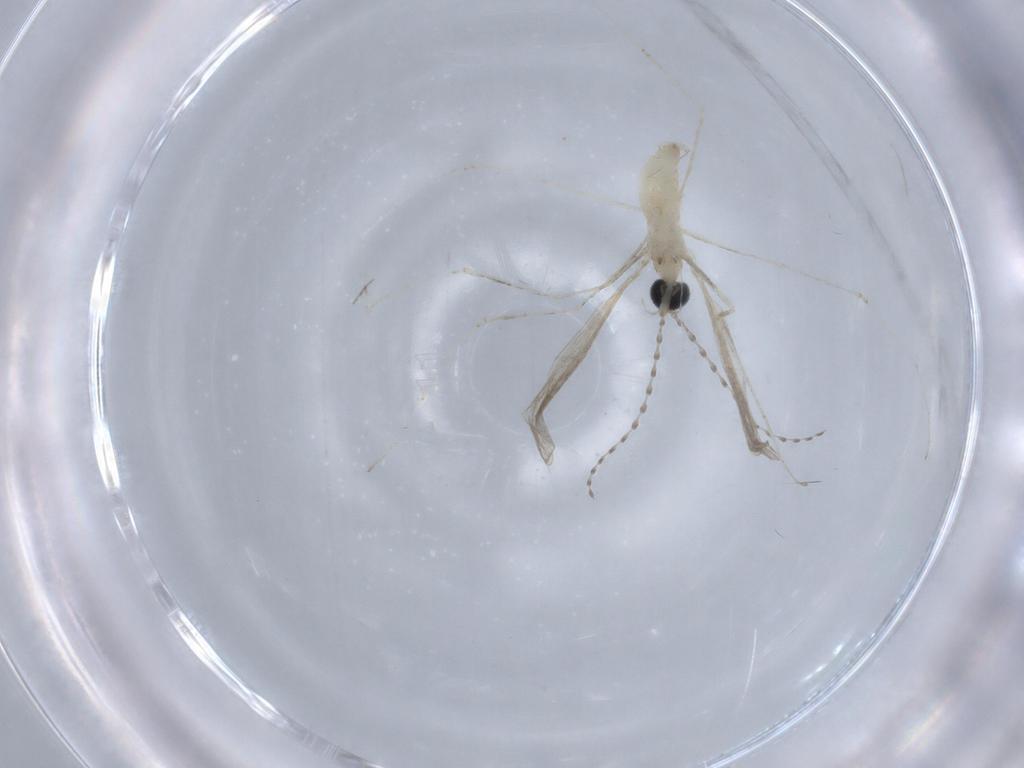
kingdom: Animalia
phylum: Arthropoda
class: Insecta
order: Diptera
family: Cecidomyiidae
